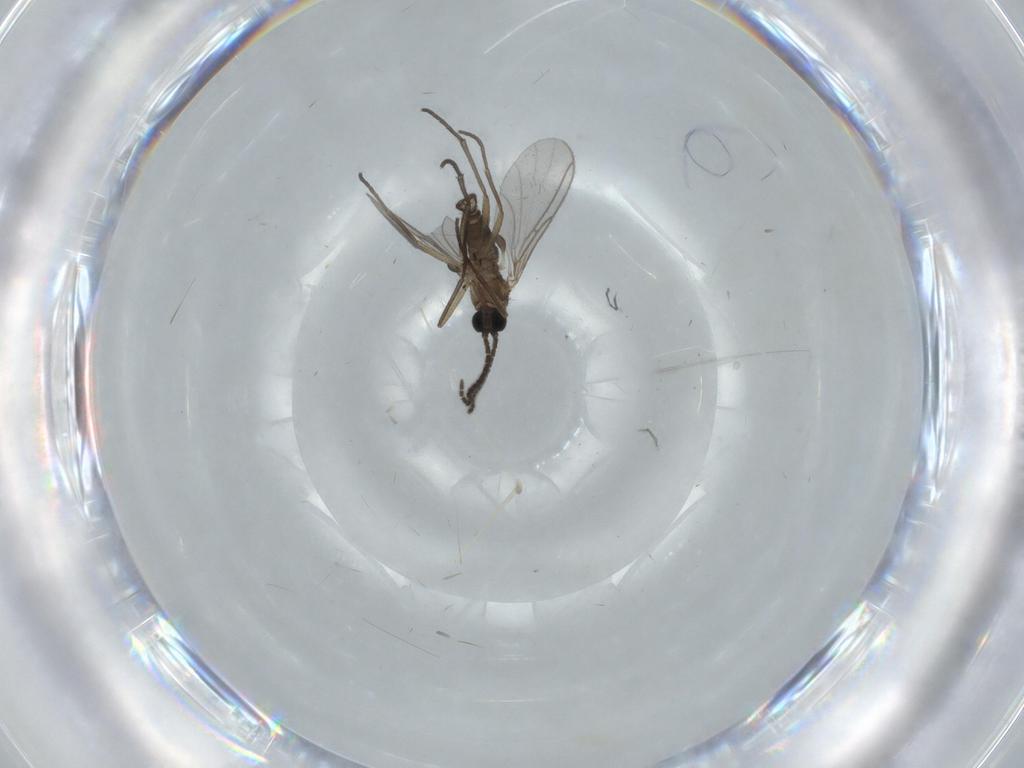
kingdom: Animalia
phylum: Arthropoda
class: Insecta
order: Diptera
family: Sciaridae
